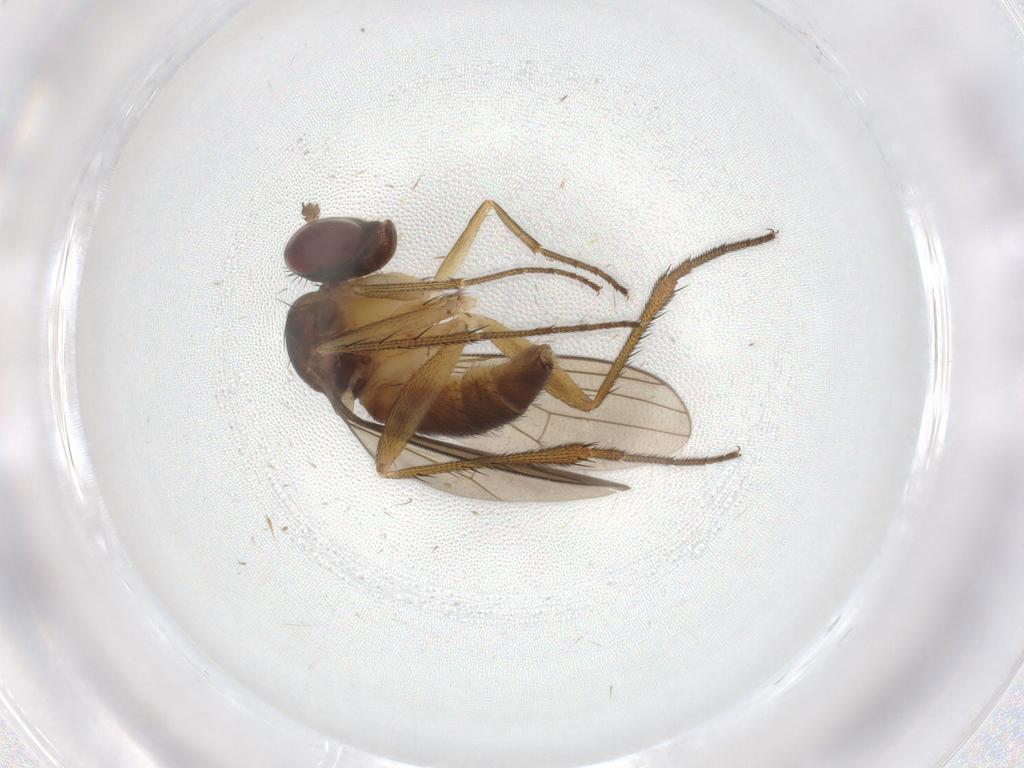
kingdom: Animalia
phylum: Arthropoda
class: Insecta
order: Diptera
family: Dolichopodidae
